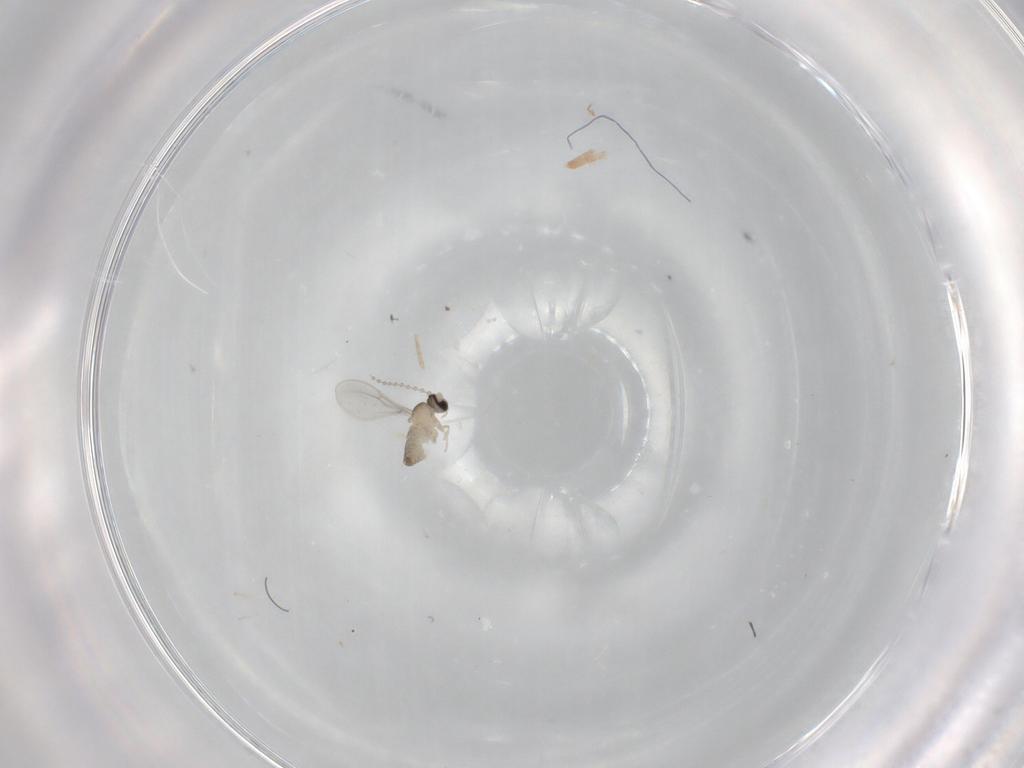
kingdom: Animalia
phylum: Arthropoda
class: Insecta
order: Diptera
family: Cecidomyiidae
